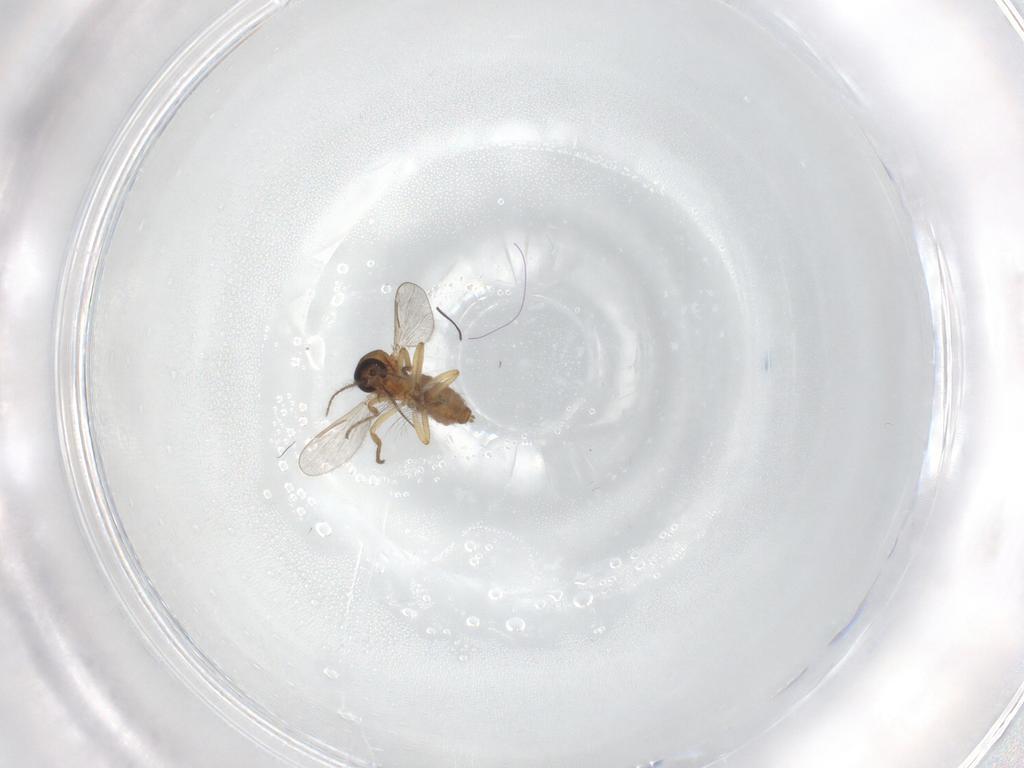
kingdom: Animalia
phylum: Arthropoda
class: Insecta
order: Diptera
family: Chironomidae
